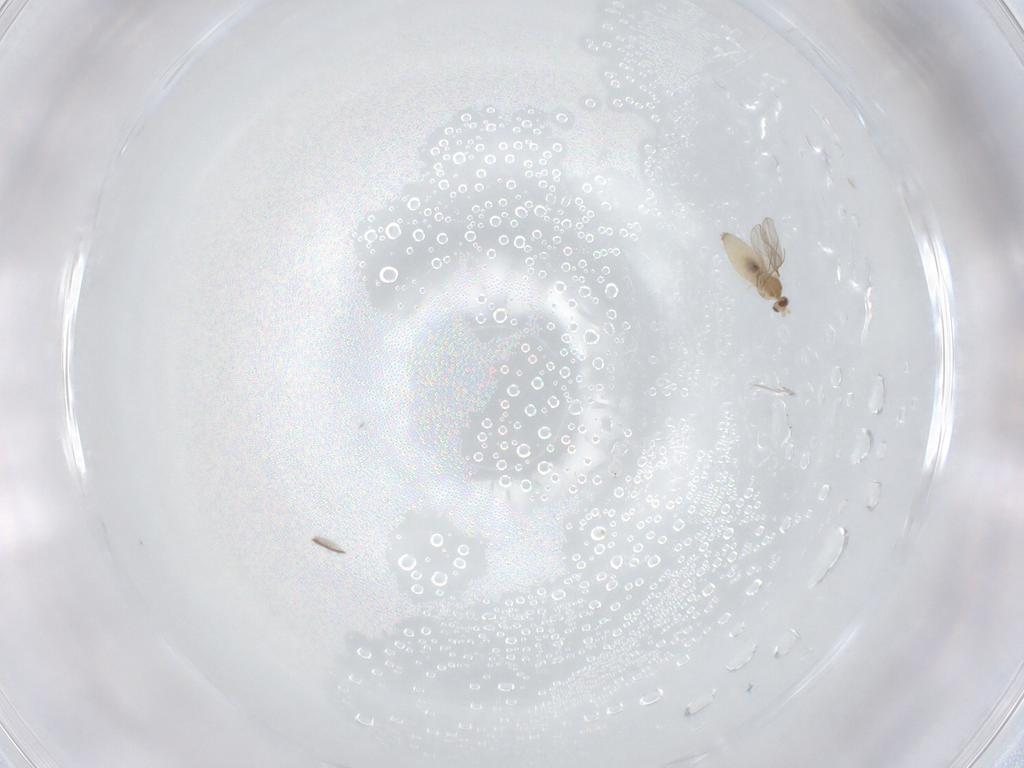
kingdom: Animalia
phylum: Arthropoda
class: Insecta
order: Diptera
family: Sciaridae
